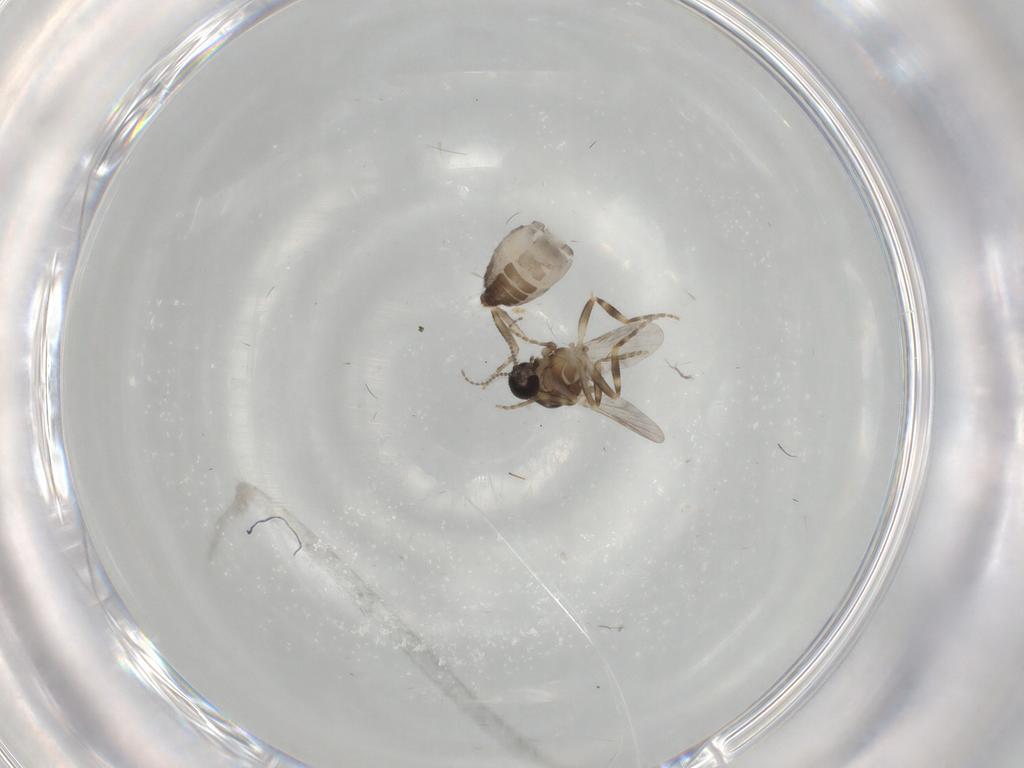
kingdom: Animalia
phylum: Arthropoda
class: Insecta
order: Diptera
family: Ceratopogonidae
